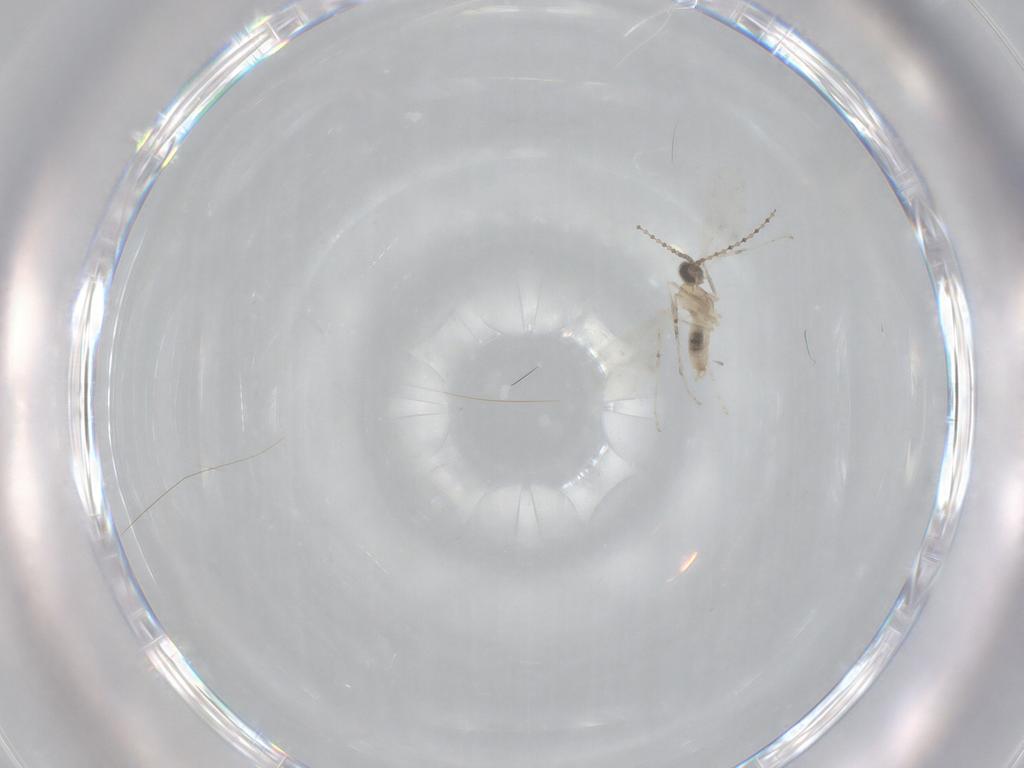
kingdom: Animalia
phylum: Arthropoda
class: Insecta
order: Diptera
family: Cecidomyiidae
